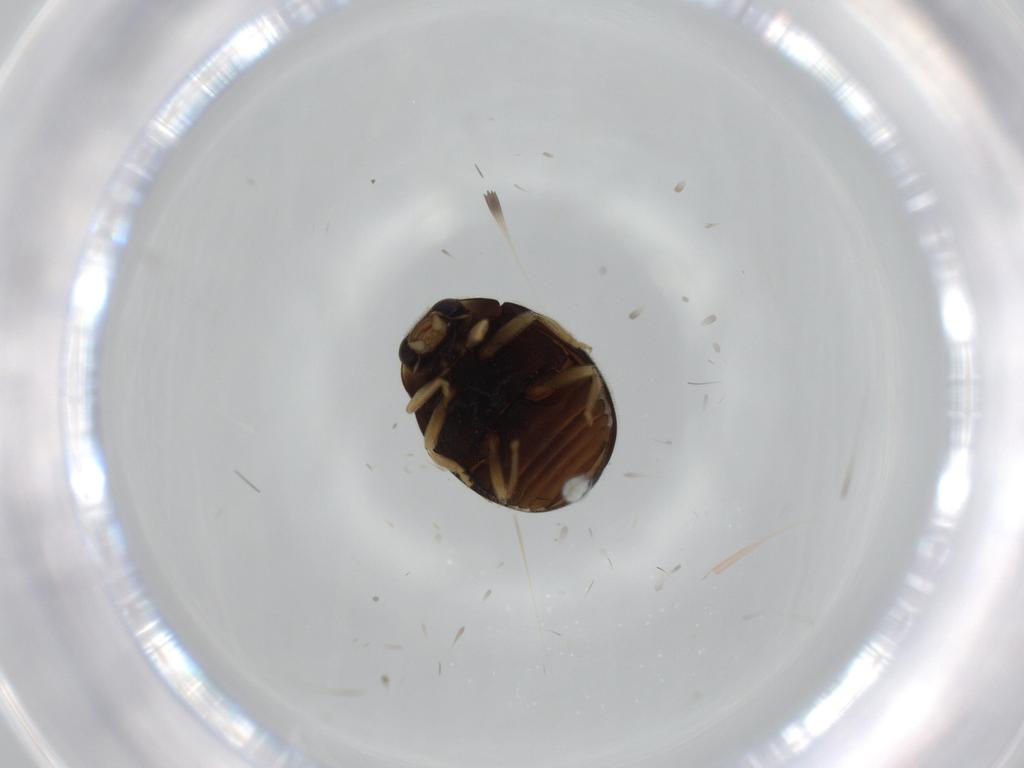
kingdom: Animalia
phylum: Arthropoda
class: Insecta
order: Coleoptera
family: Coccinellidae
